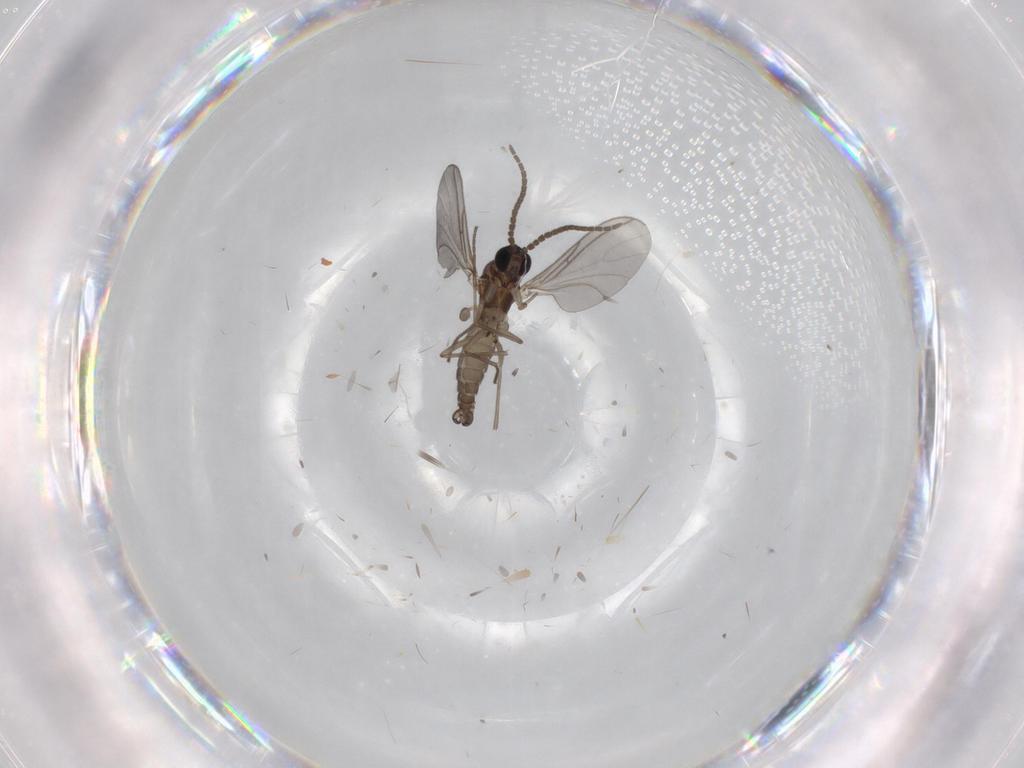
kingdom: Animalia
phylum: Arthropoda
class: Insecta
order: Diptera
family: Sciaridae
